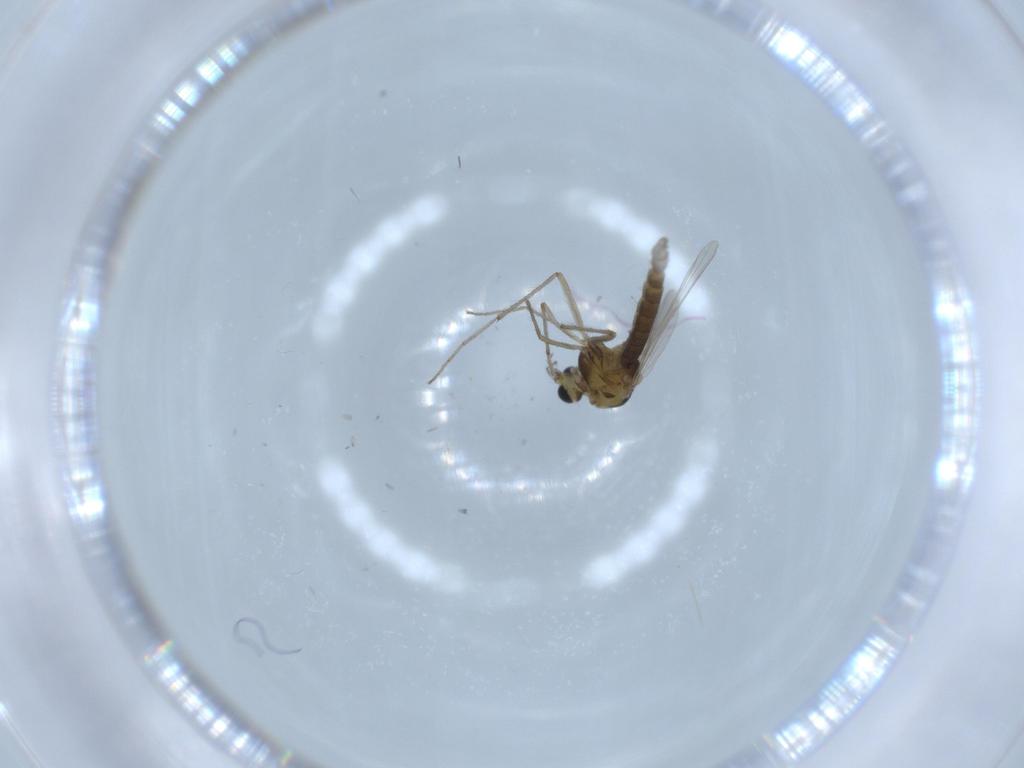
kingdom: Animalia
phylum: Arthropoda
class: Insecta
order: Diptera
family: Chironomidae
